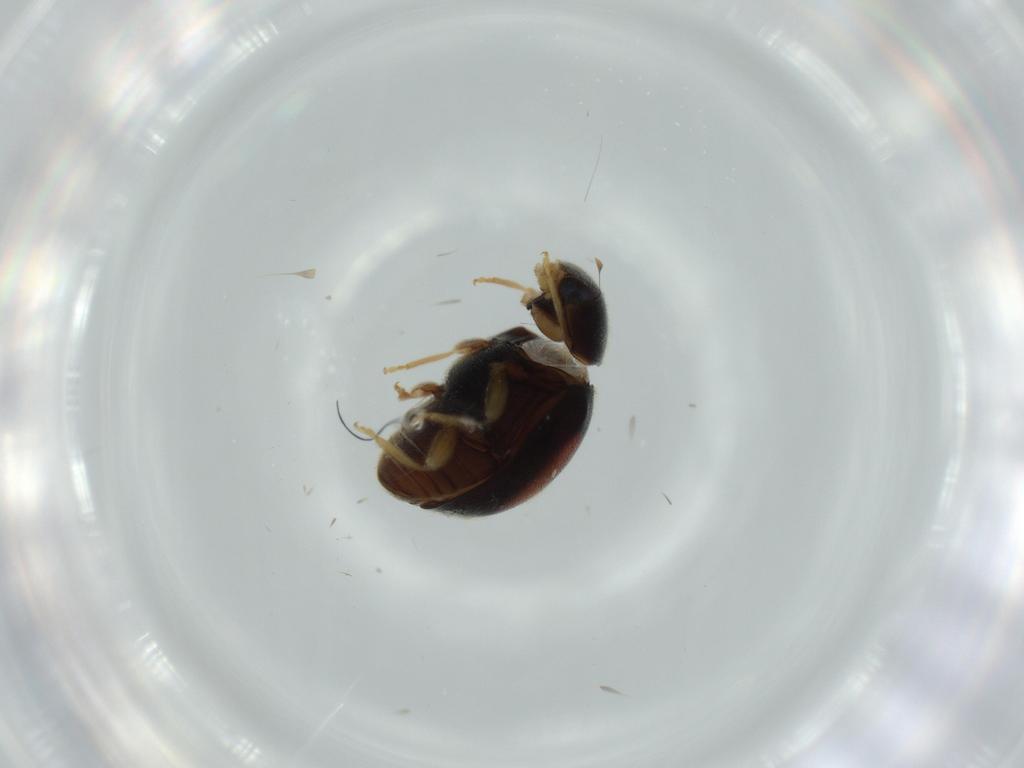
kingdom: Animalia
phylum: Arthropoda
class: Insecta
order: Coleoptera
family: Coccinellidae
